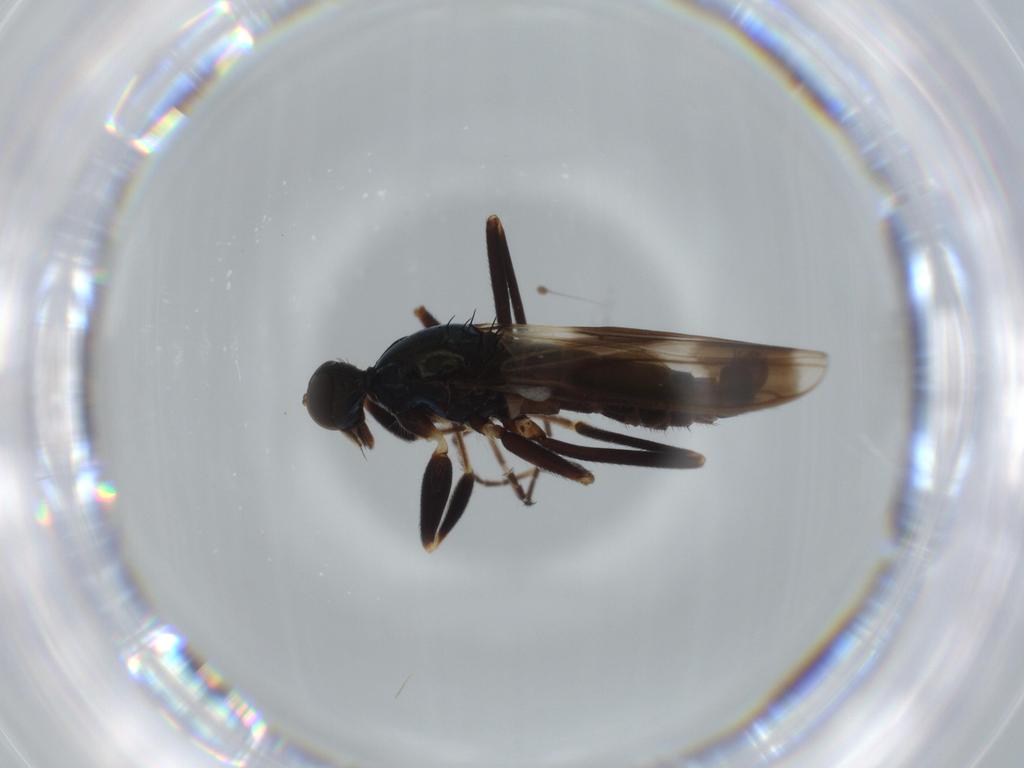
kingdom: Animalia
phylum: Arthropoda
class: Insecta
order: Diptera
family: Hybotidae
